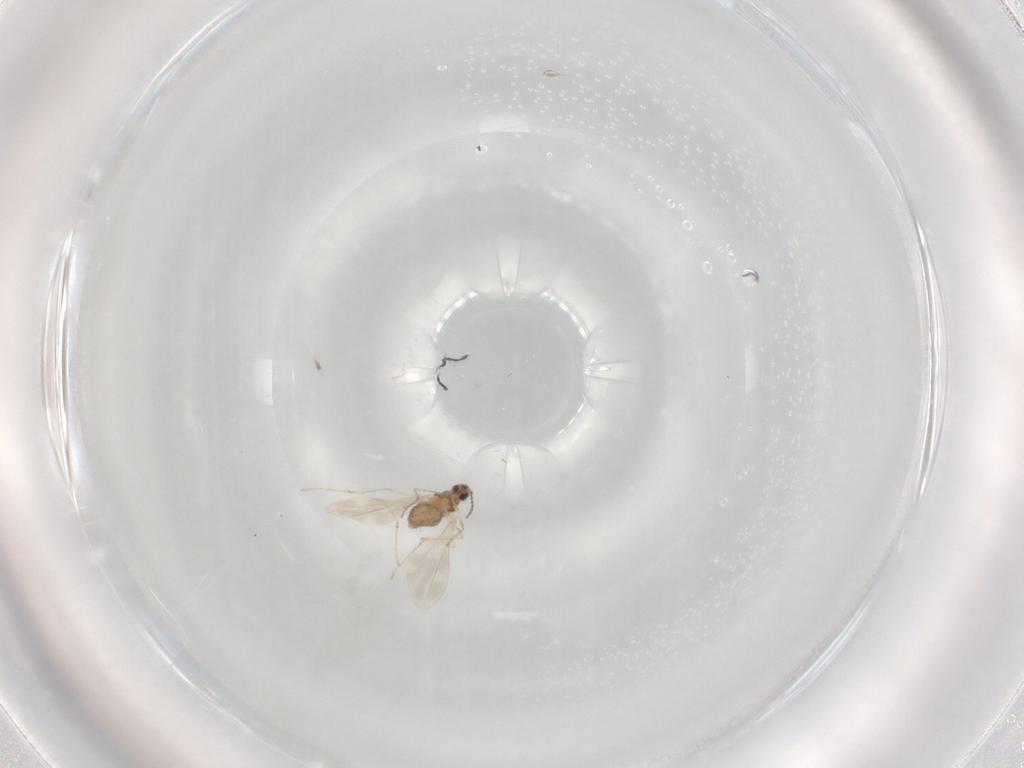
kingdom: Animalia
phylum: Arthropoda
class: Insecta
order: Diptera
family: Cecidomyiidae
